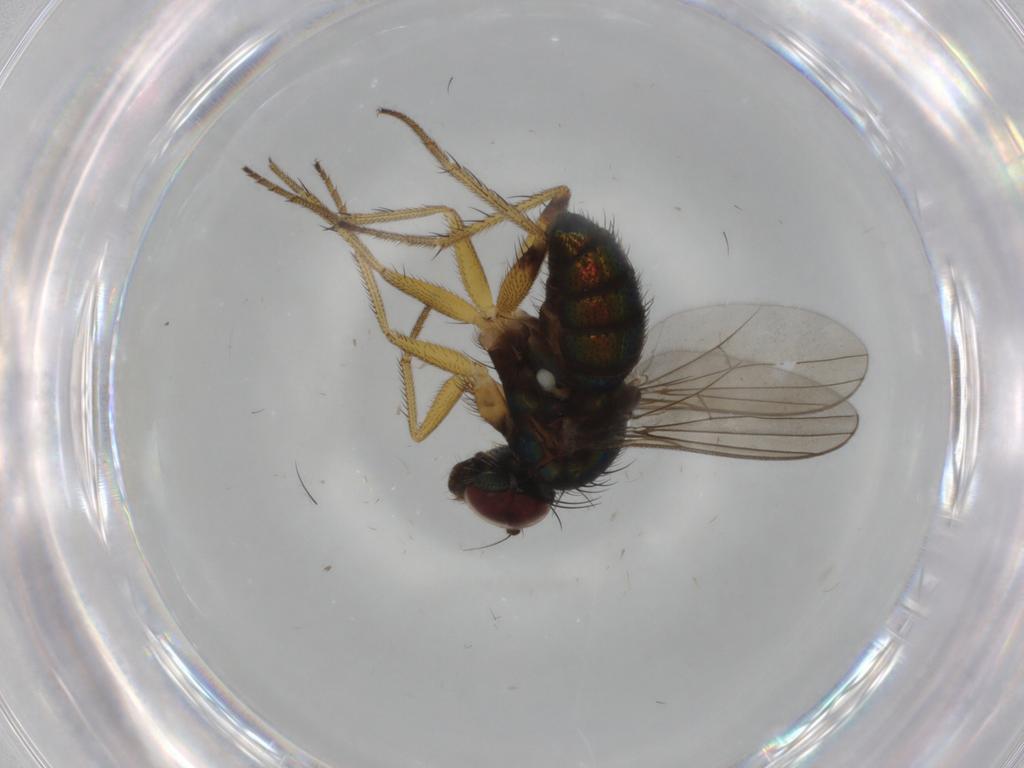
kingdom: Animalia
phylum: Arthropoda
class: Insecta
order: Diptera
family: Dolichopodidae
